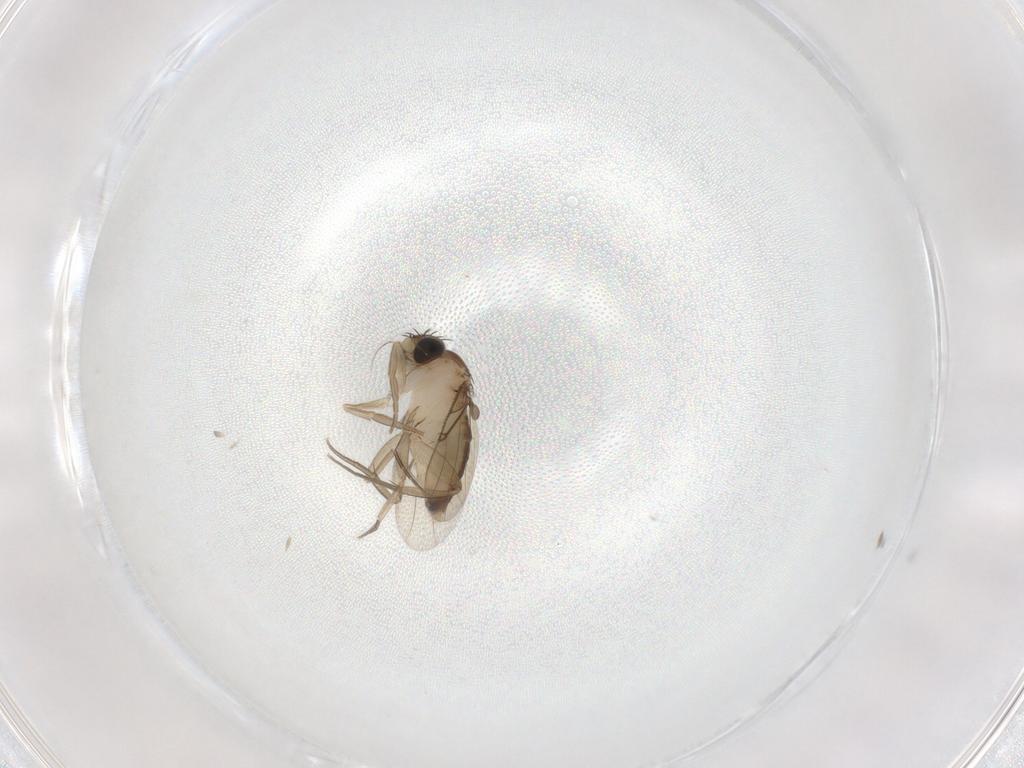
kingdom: Animalia
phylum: Arthropoda
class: Insecta
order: Diptera
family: Phoridae
